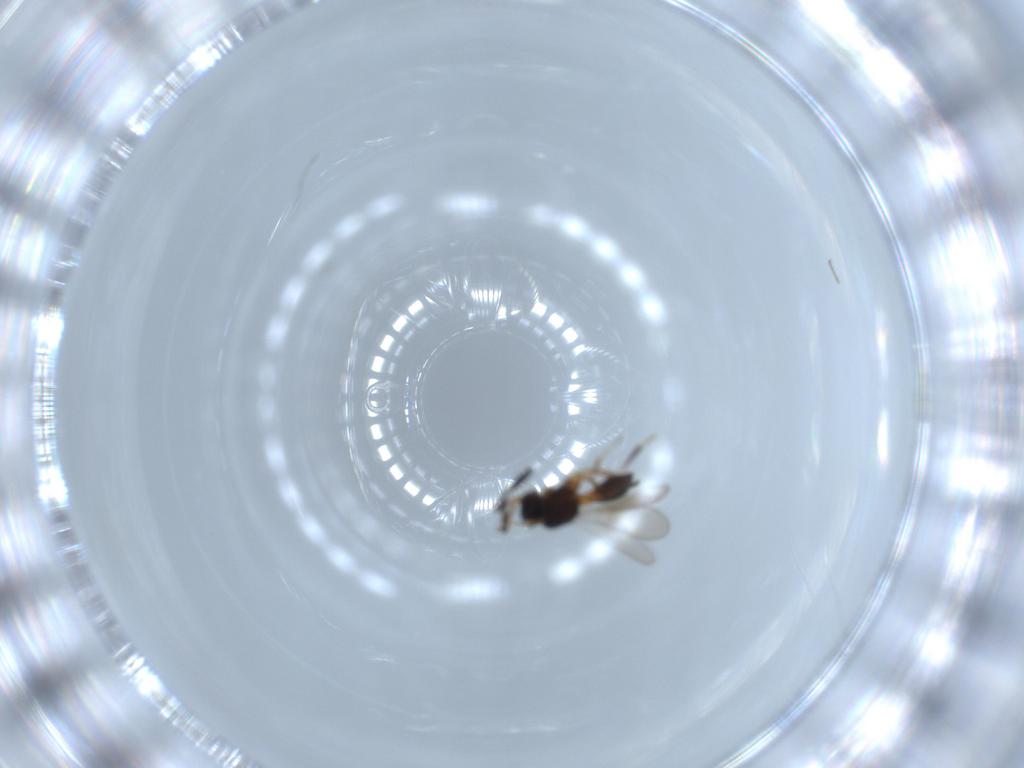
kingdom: Animalia
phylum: Arthropoda
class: Insecta
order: Hymenoptera
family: Scelionidae
